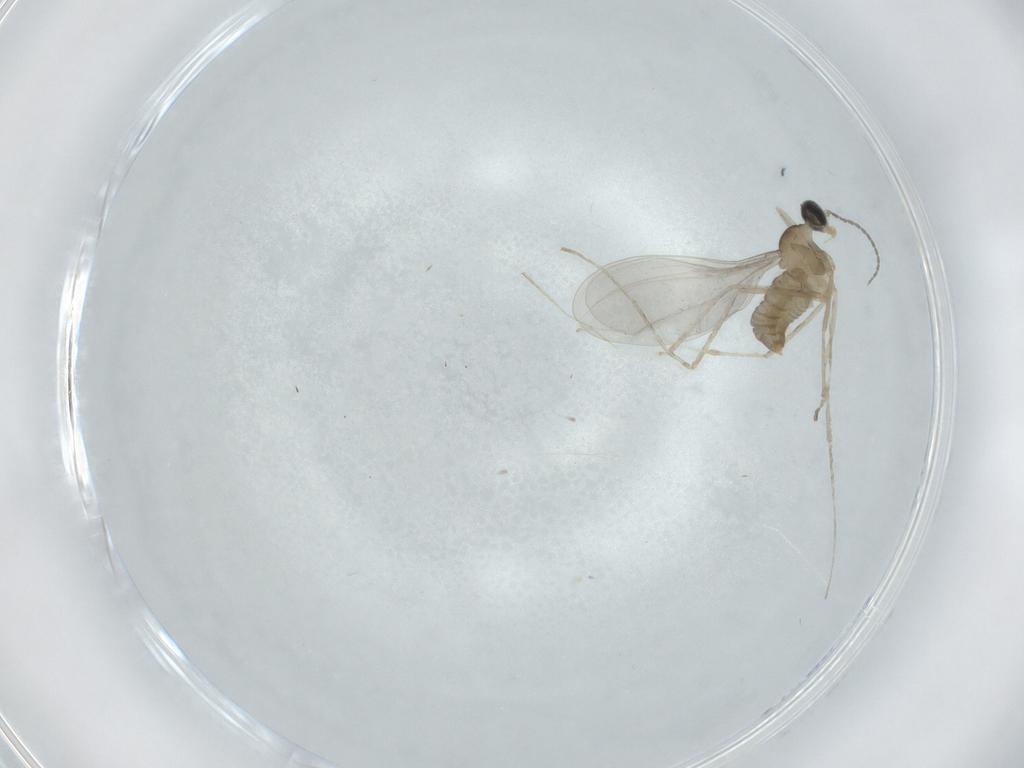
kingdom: Animalia
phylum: Arthropoda
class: Insecta
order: Diptera
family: Cecidomyiidae
